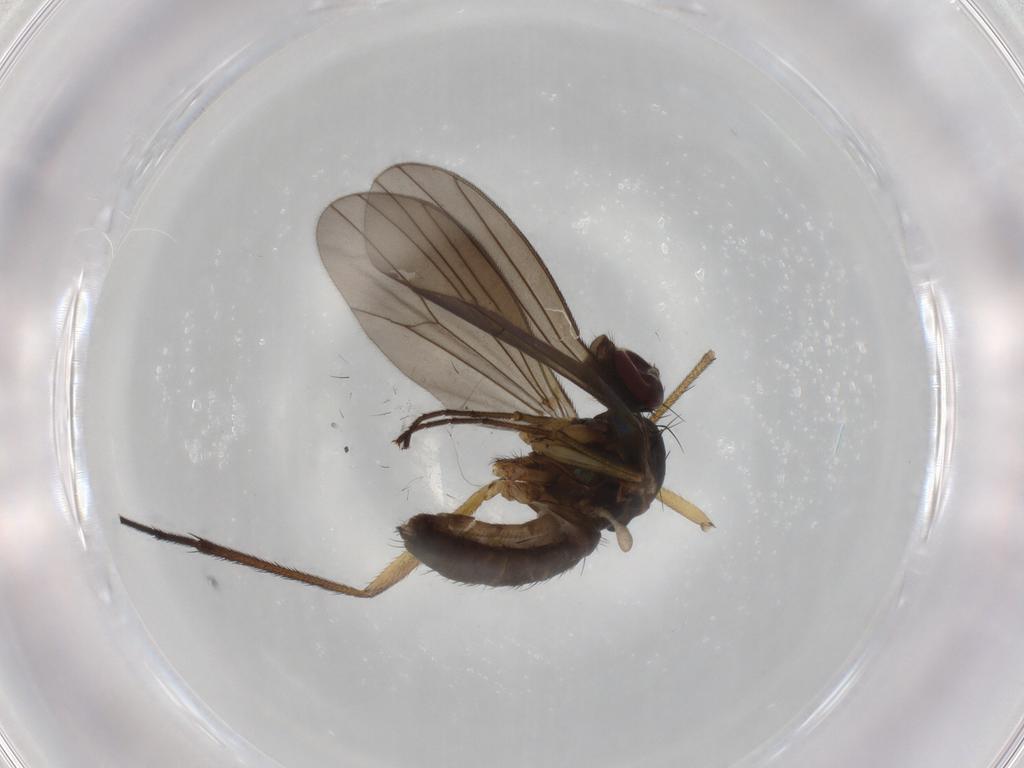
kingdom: Animalia
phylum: Arthropoda
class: Insecta
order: Diptera
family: Dolichopodidae
